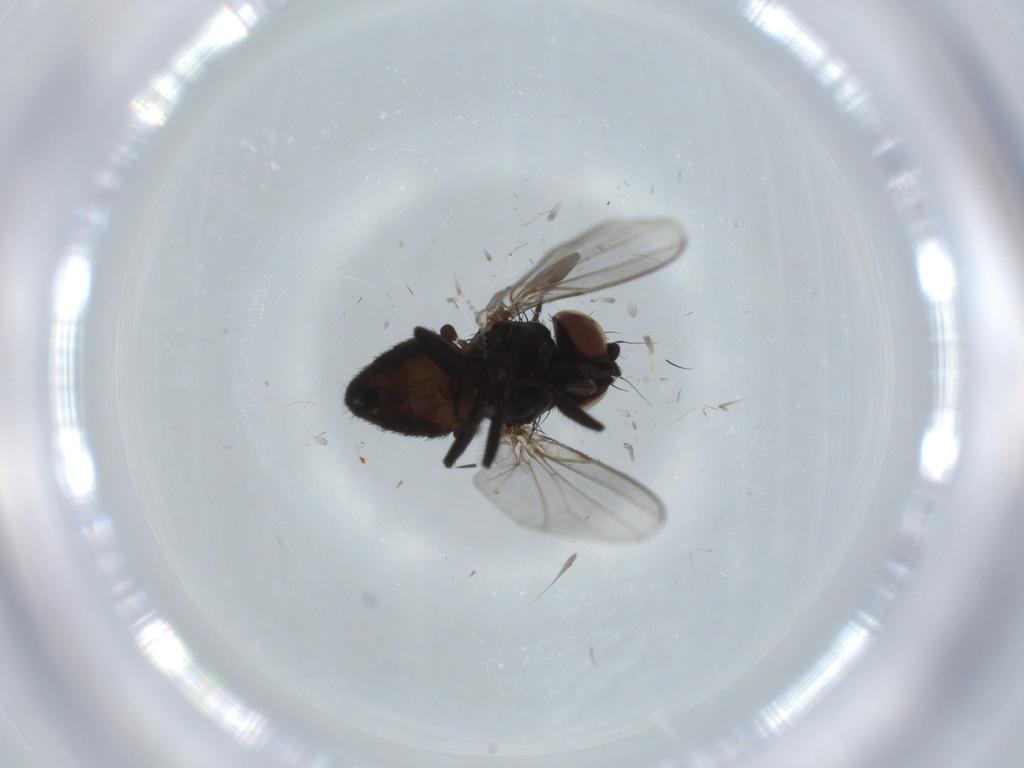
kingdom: Animalia
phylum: Arthropoda
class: Insecta
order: Diptera
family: Milichiidae
